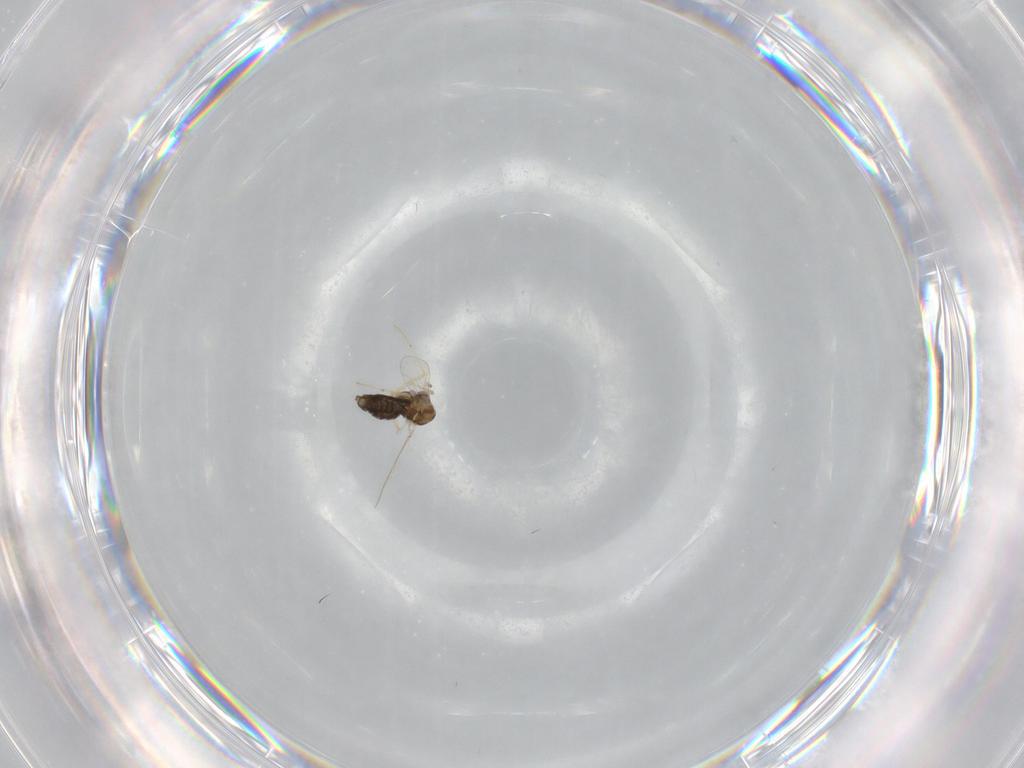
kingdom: Animalia
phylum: Arthropoda
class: Insecta
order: Diptera
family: Chironomidae
